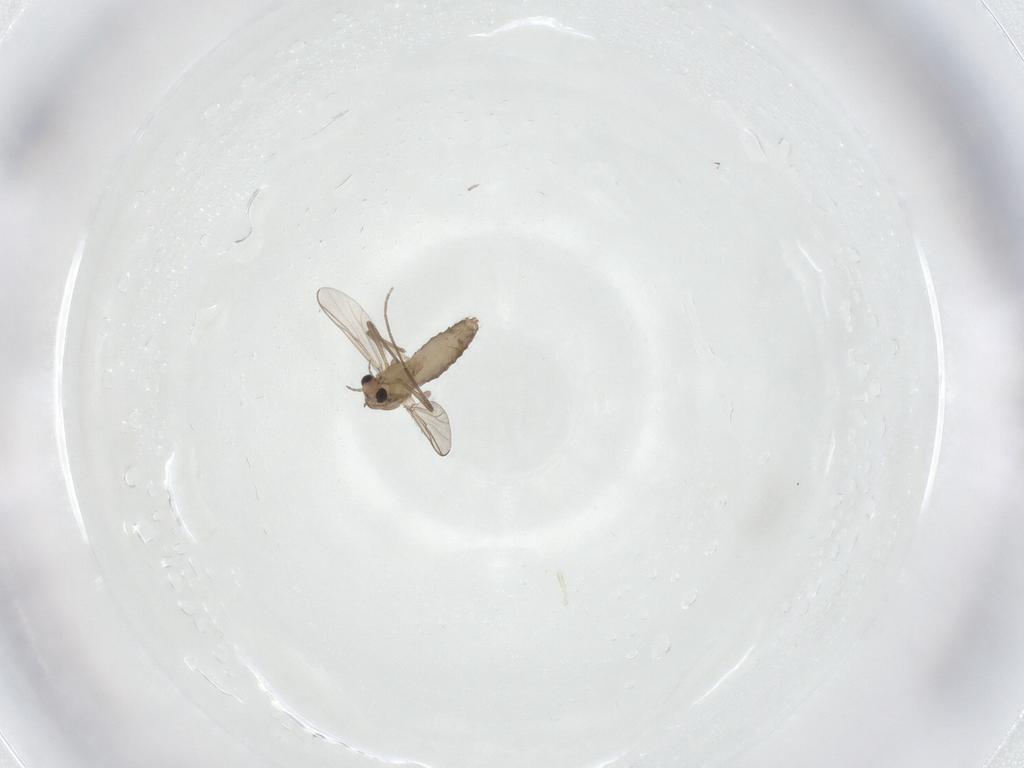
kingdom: Animalia
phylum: Arthropoda
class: Insecta
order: Diptera
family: Chironomidae
